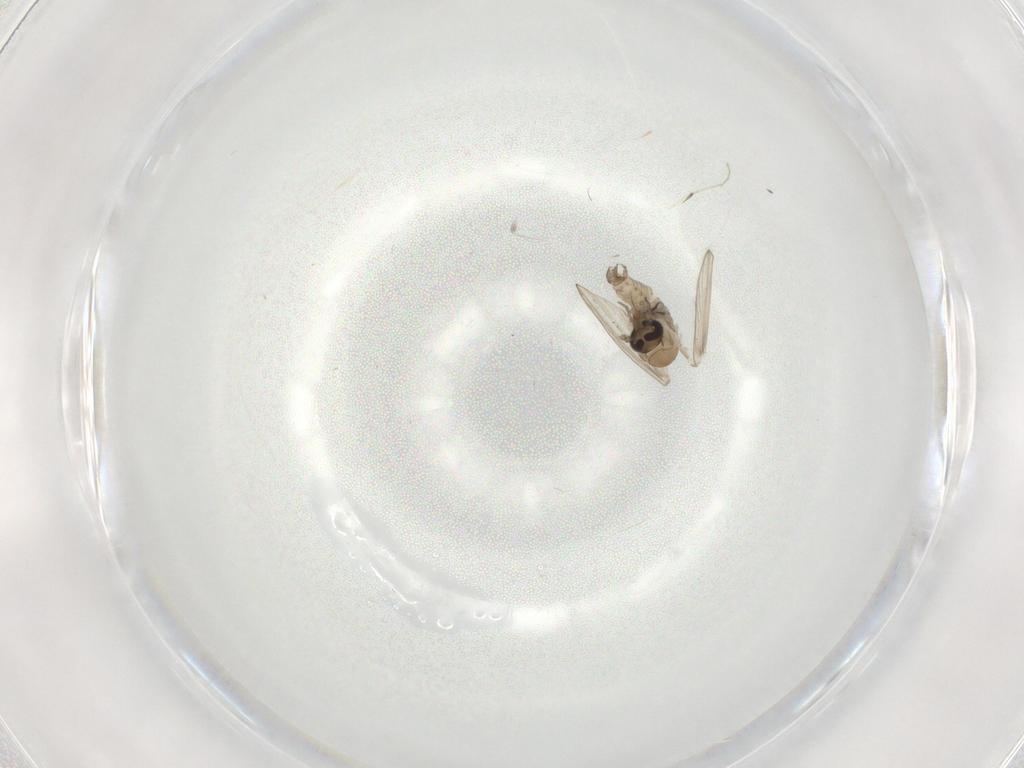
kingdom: Animalia
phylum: Arthropoda
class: Insecta
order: Diptera
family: Psychodidae
